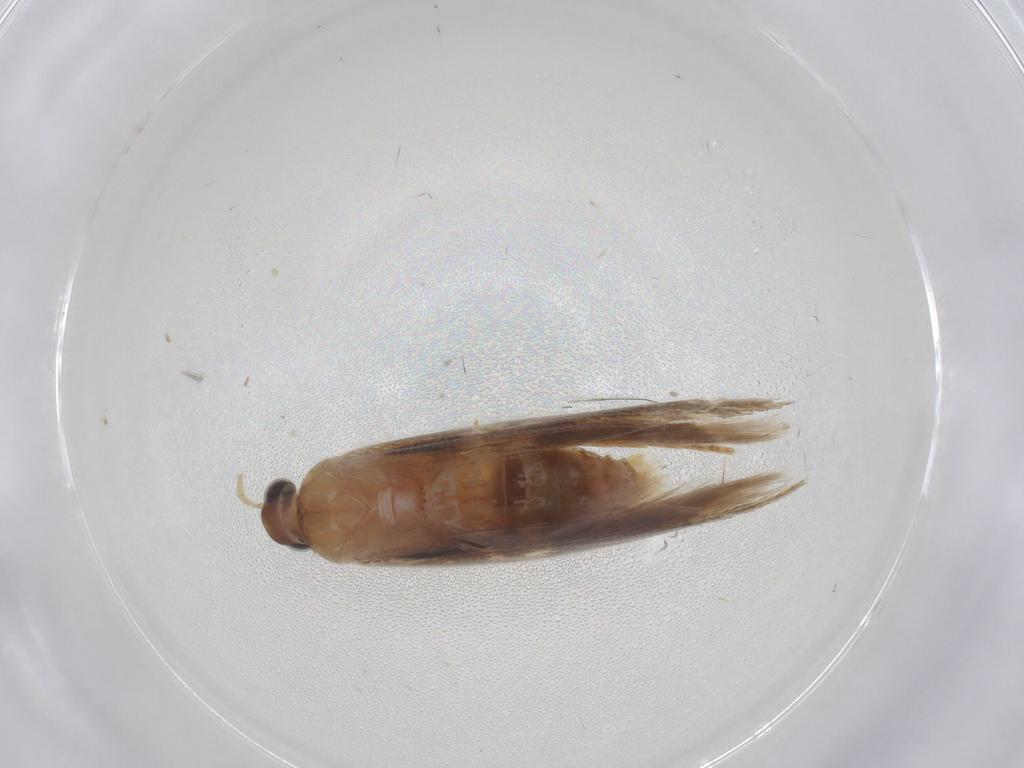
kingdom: Animalia
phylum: Arthropoda
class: Insecta
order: Lepidoptera
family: Gelechiidae
